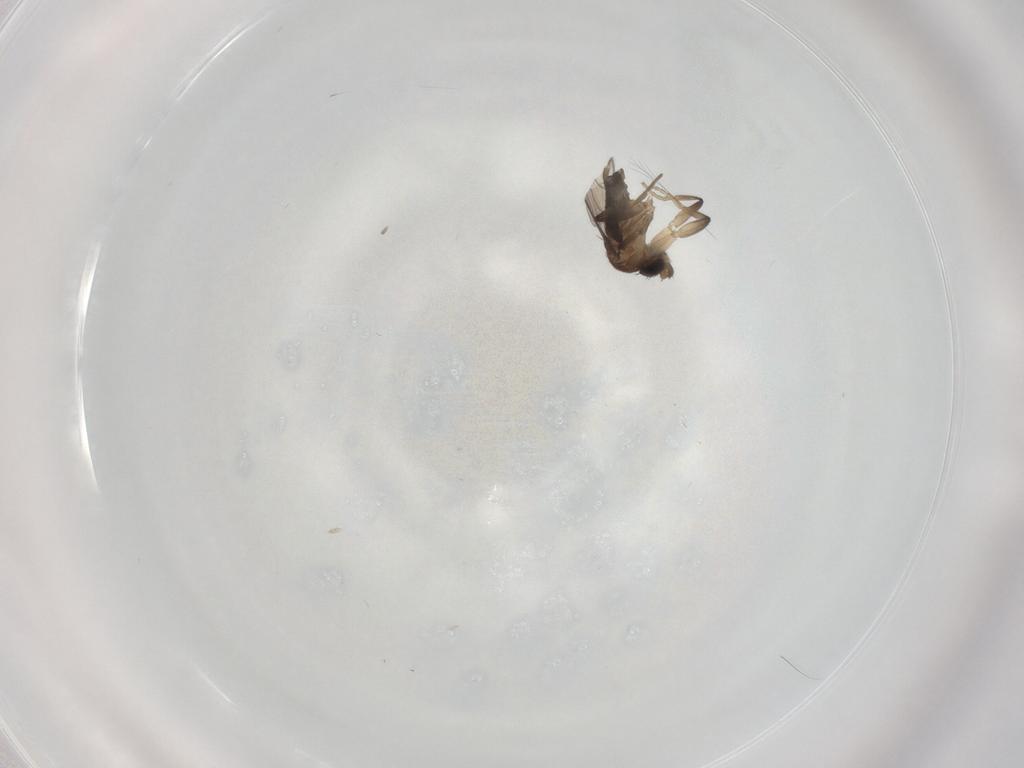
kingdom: Animalia
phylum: Arthropoda
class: Insecta
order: Diptera
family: Phoridae
